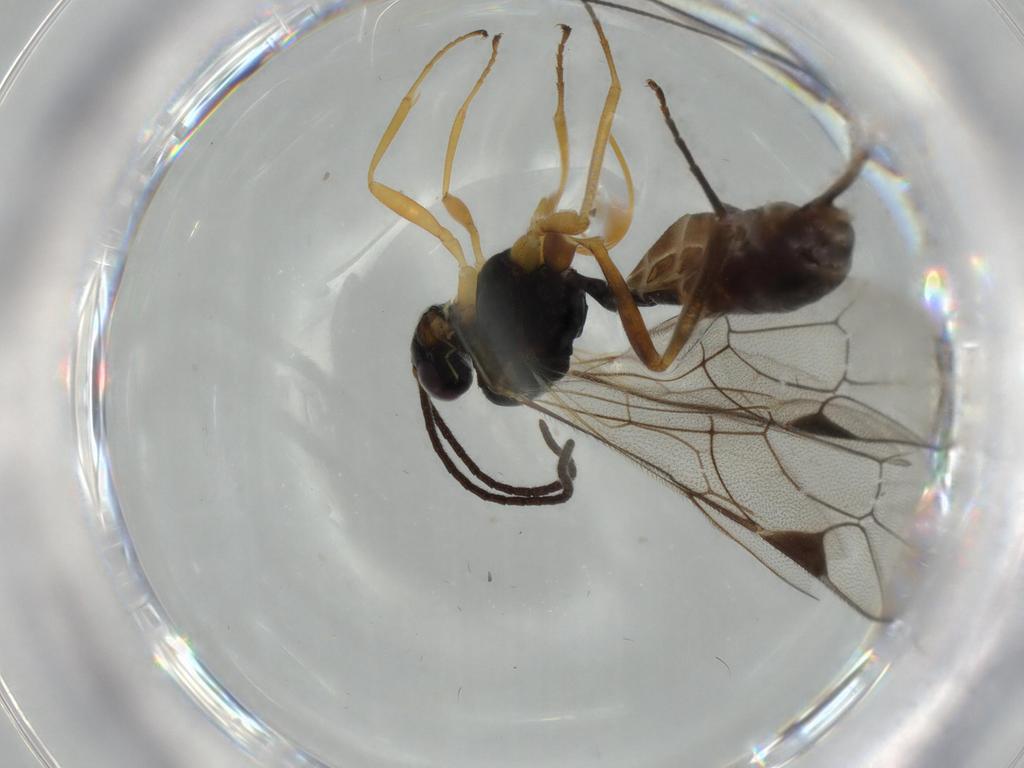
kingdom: Animalia
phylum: Arthropoda
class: Insecta
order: Hymenoptera
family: Ichneumonidae
